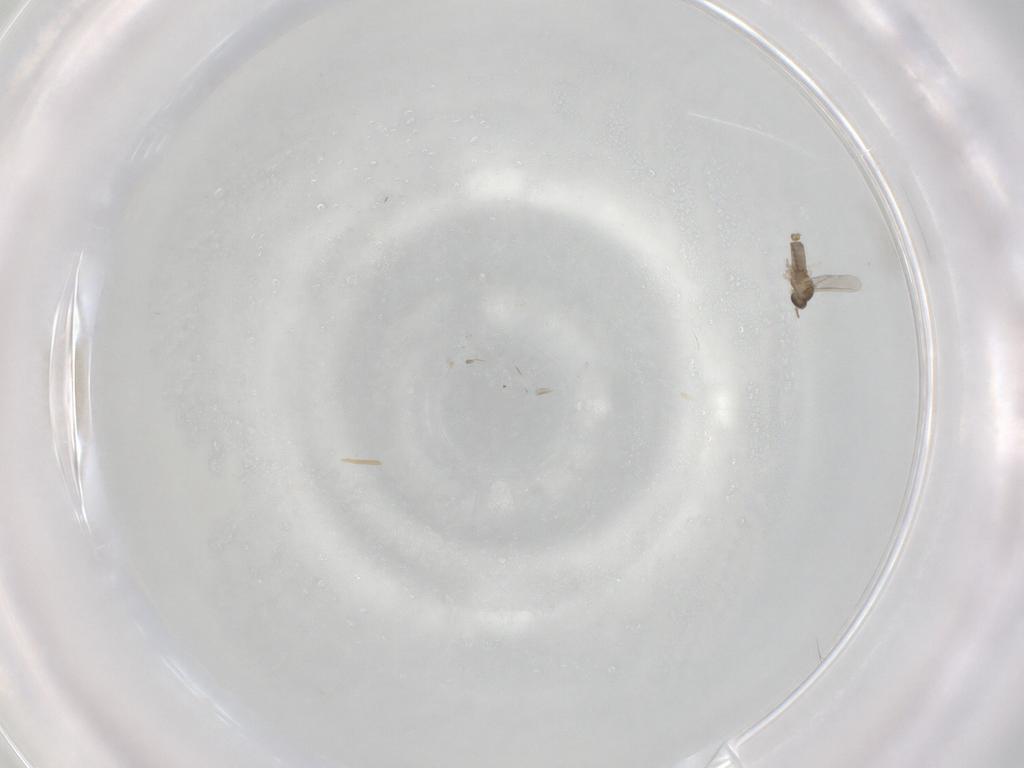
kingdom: Animalia
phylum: Arthropoda
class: Insecta
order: Diptera
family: Cecidomyiidae
